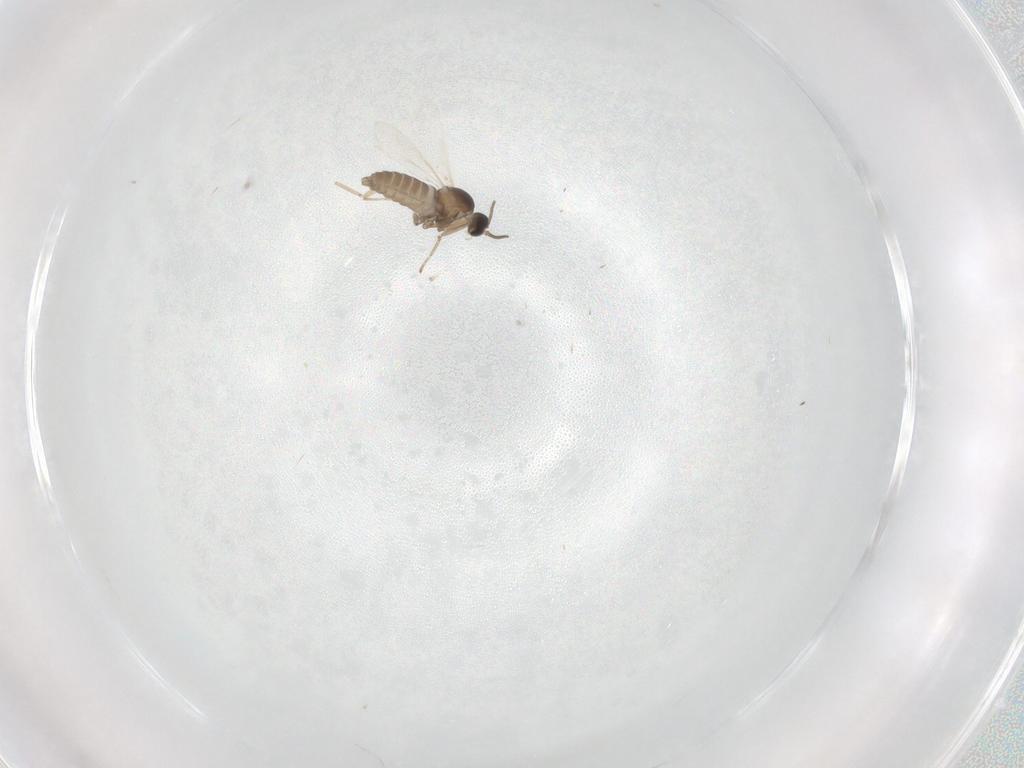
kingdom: Animalia
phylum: Arthropoda
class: Insecta
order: Diptera
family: Cecidomyiidae
